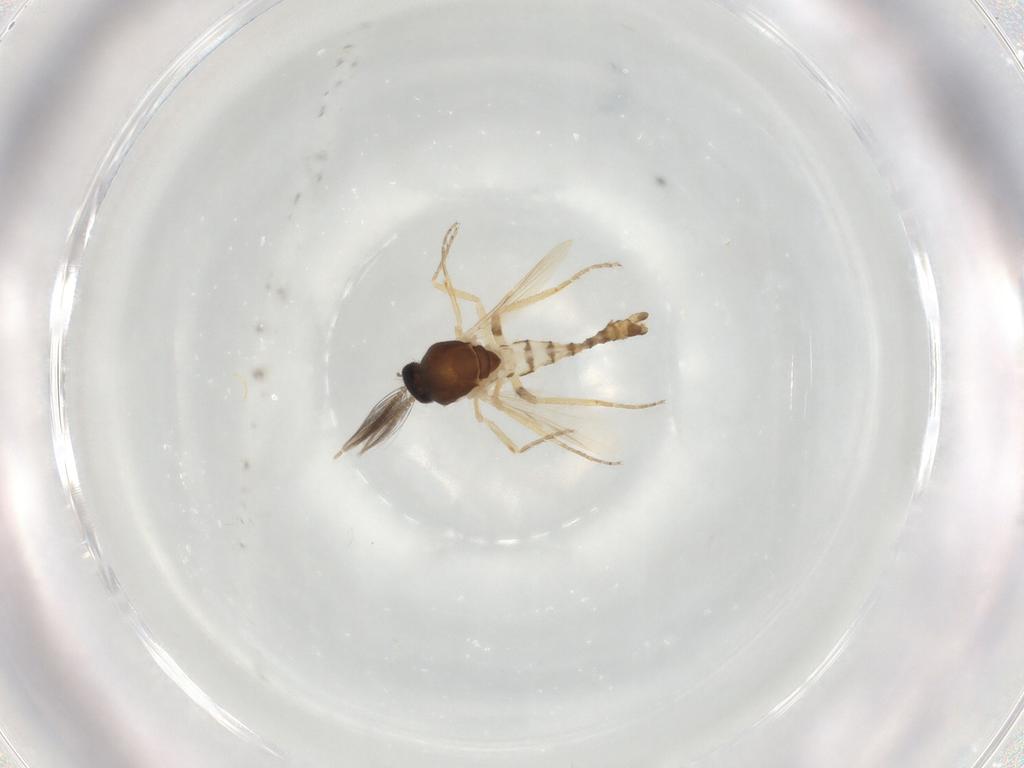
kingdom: Animalia
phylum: Arthropoda
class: Insecta
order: Diptera
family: Ceratopogonidae
